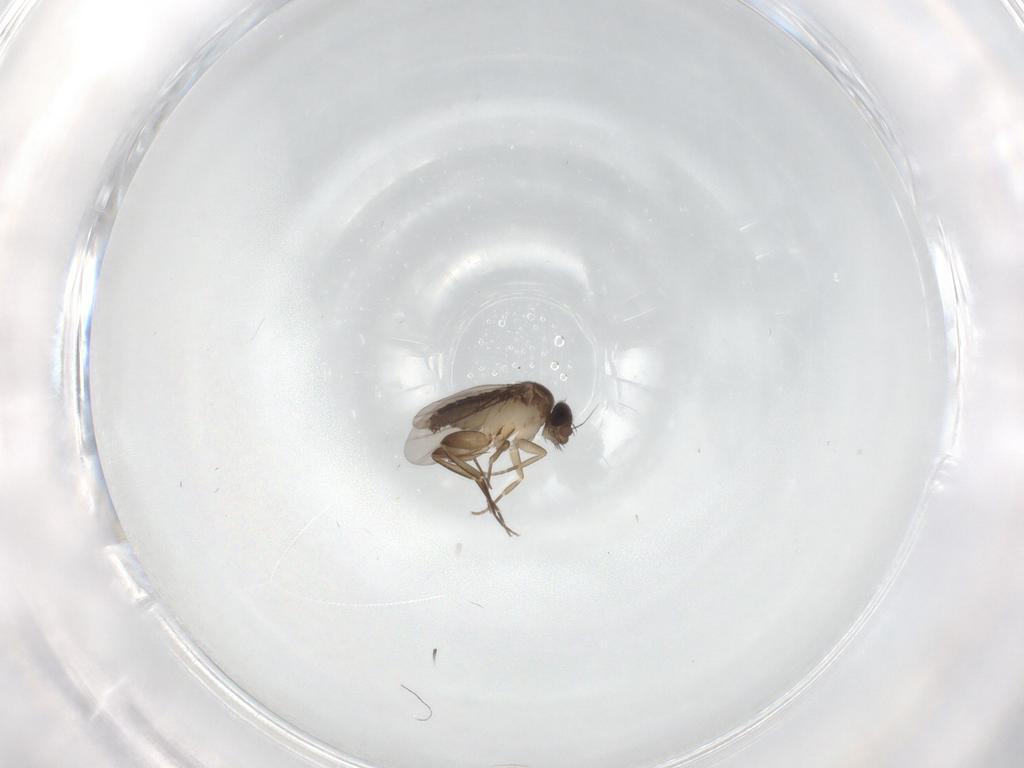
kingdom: Animalia
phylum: Arthropoda
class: Insecta
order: Diptera
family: Phoridae
